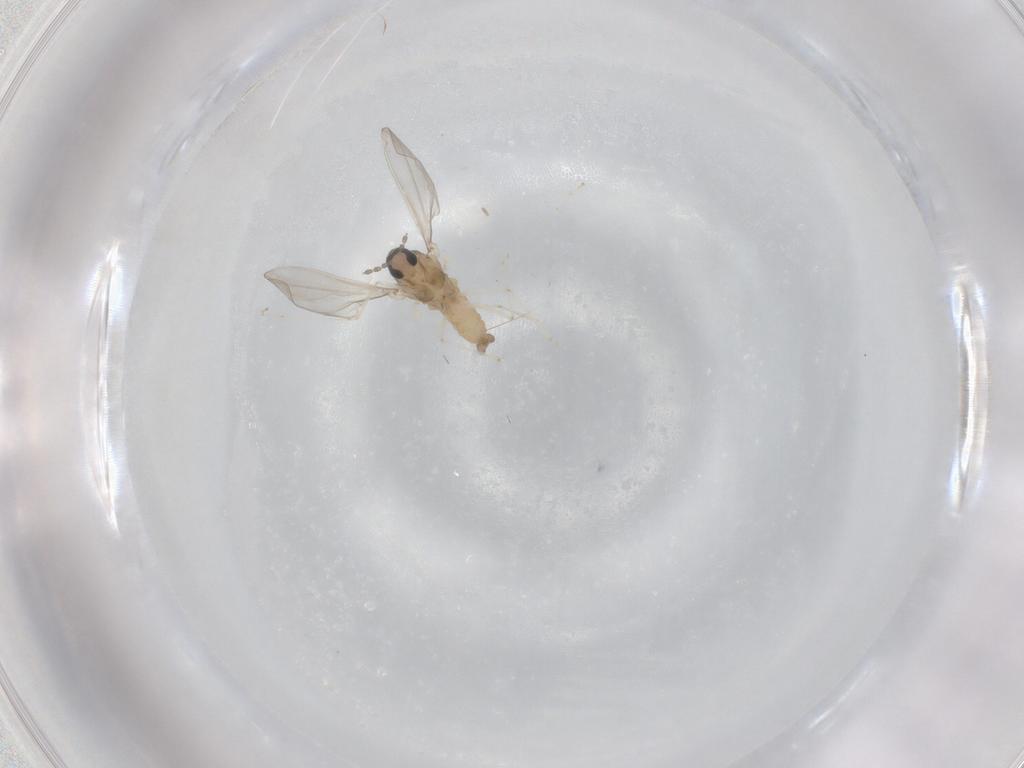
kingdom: Animalia
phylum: Arthropoda
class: Insecta
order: Diptera
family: Cecidomyiidae
